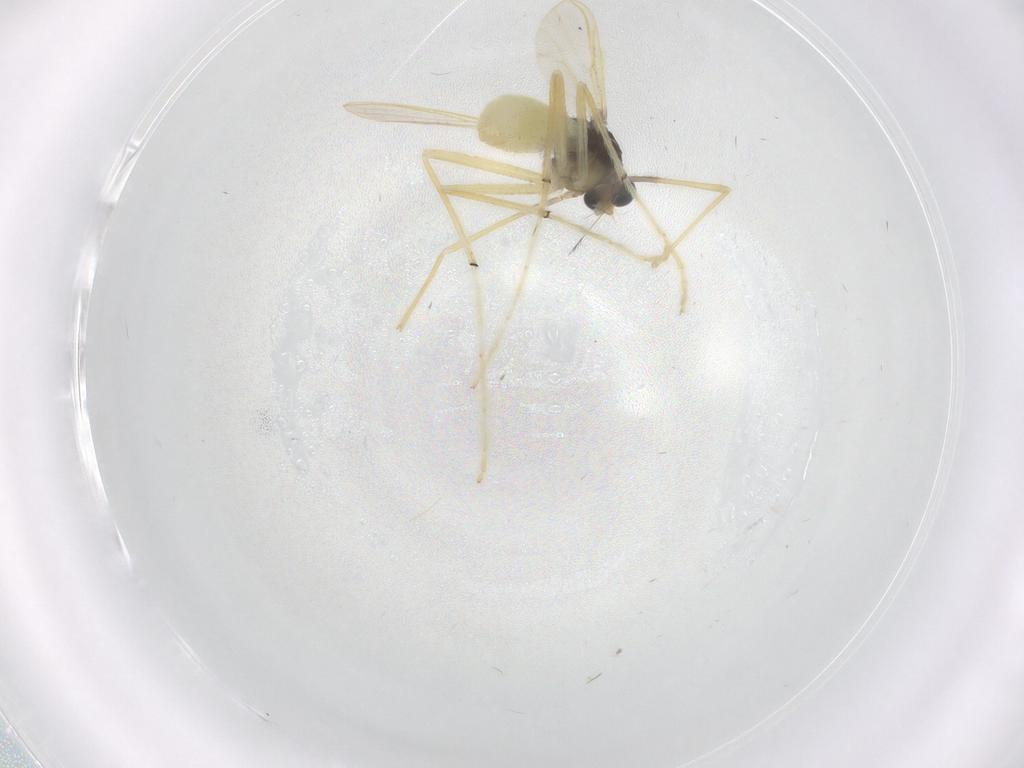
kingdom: Animalia
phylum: Arthropoda
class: Insecta
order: Diptera
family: Chironomidae
